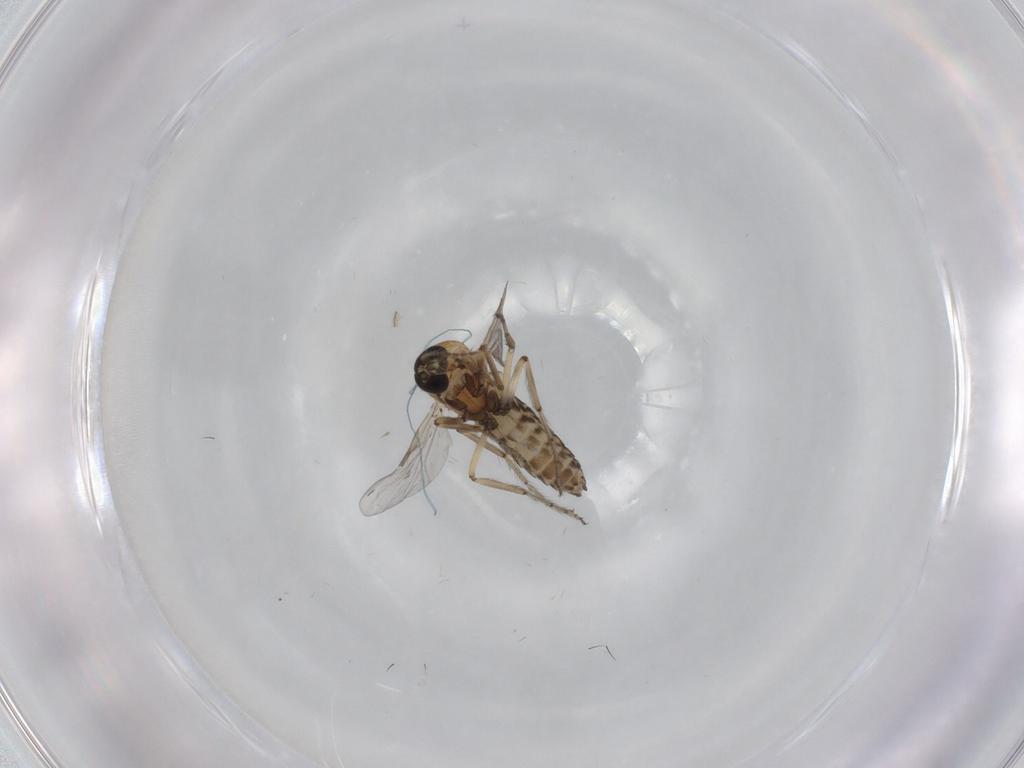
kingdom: Animalia
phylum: Arthropoda
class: Insecta
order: Diptera
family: Ceratopogonidae
